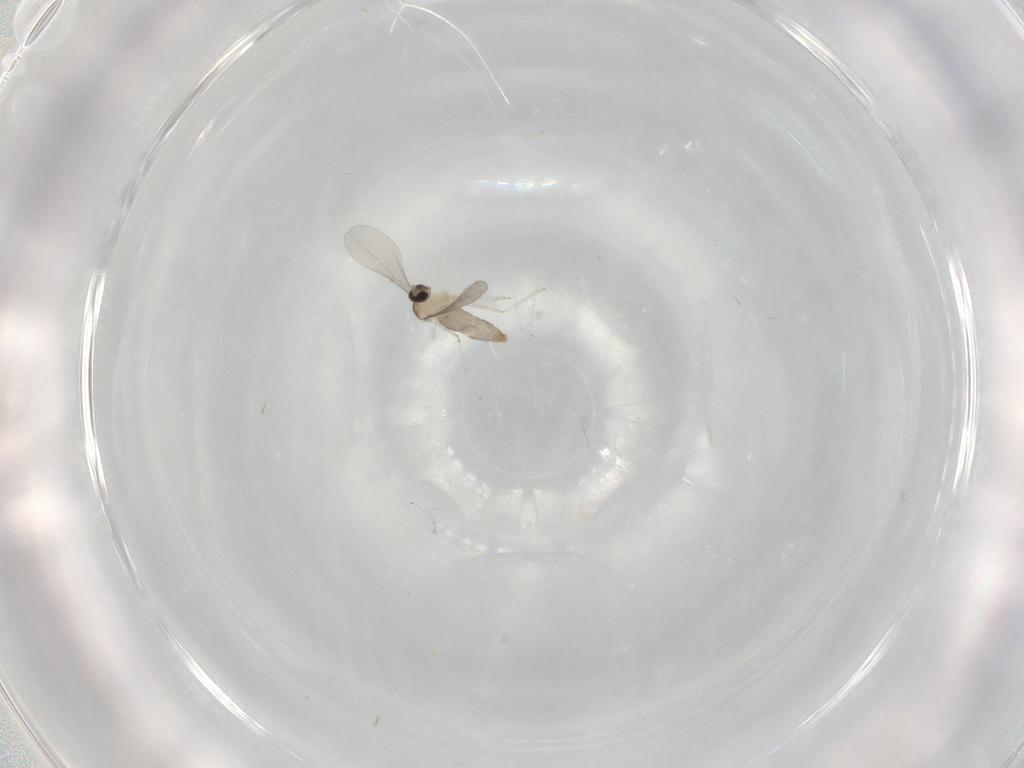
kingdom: Animalia
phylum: Arthropoda
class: Insecta
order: Diptera
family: Cecidomyiidae
